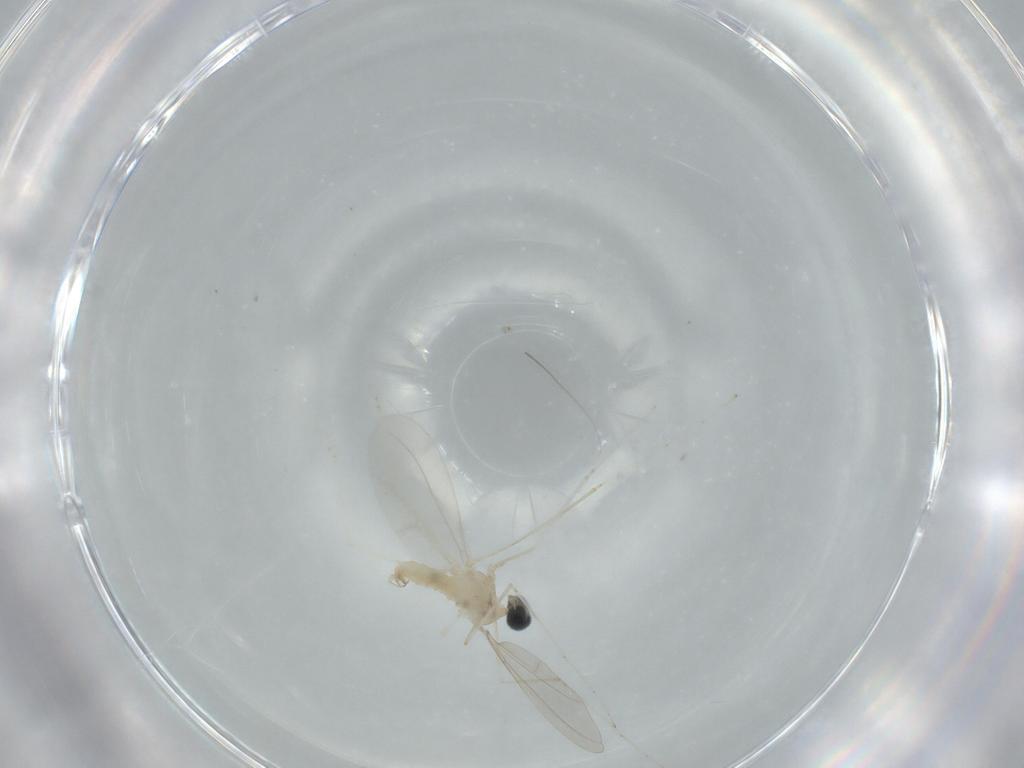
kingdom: Animalia
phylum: Arthropoda
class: Insecta
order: Diptera
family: Cecidomyiidae
